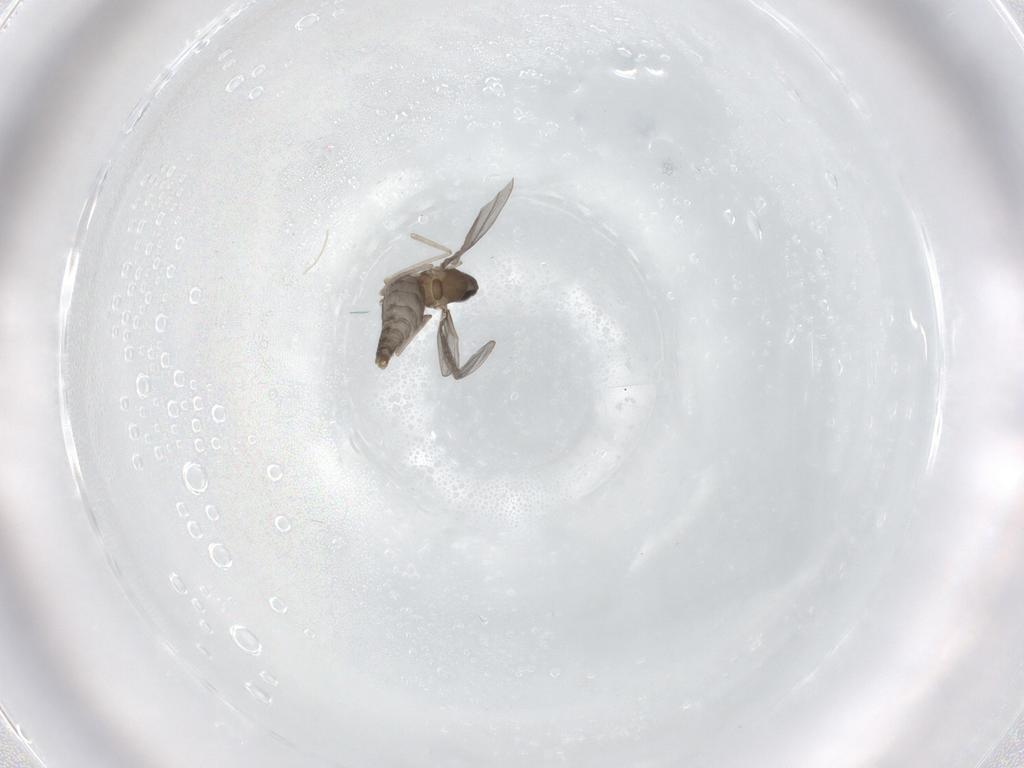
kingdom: Animalia
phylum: Arthropoda
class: Insecta
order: Diptera
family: Cecidomyiidae
